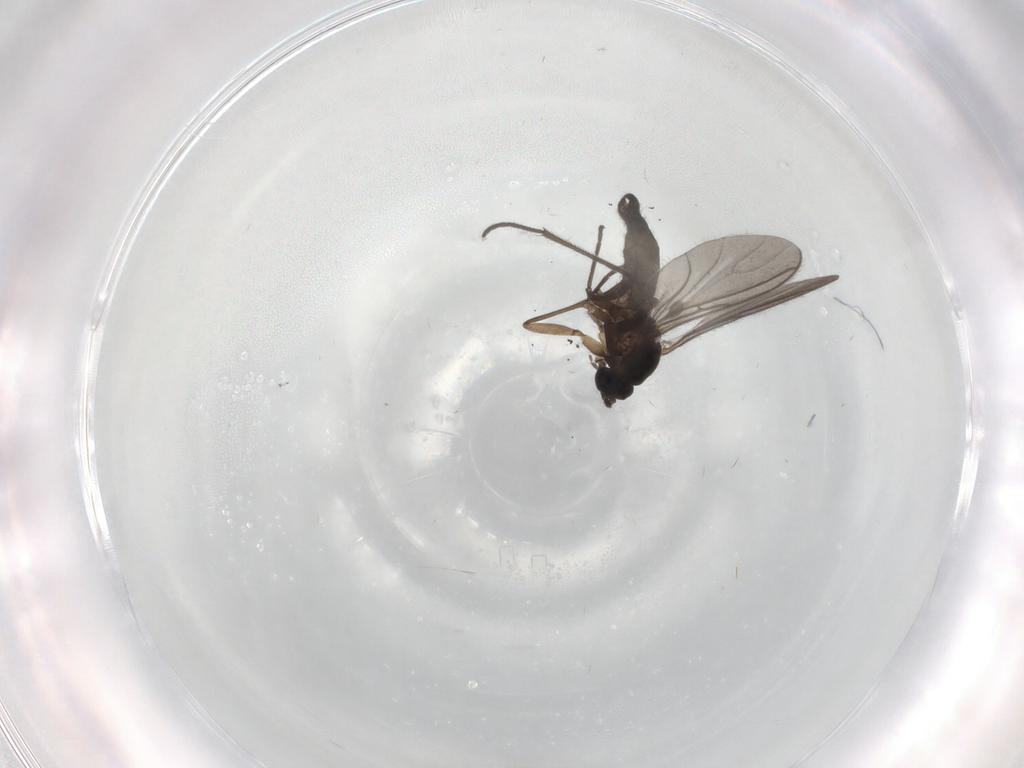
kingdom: Animalia
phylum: Arthropoda
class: Insecta
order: Diptera
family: Sciaridae
